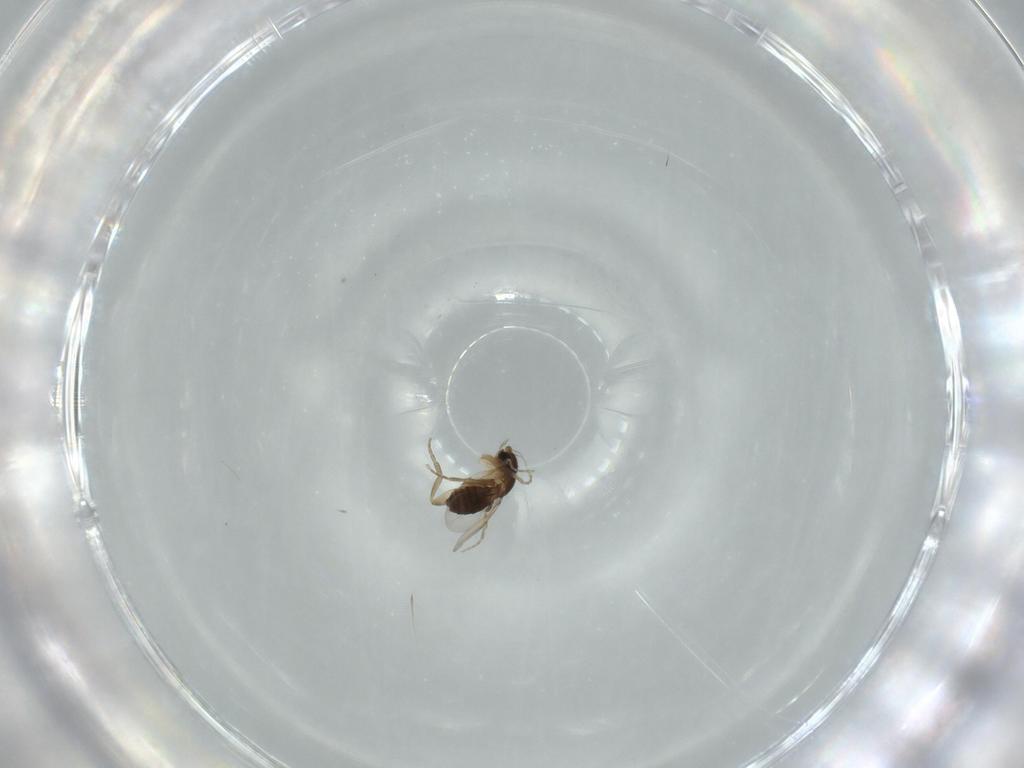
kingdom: Animalia
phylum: Arthropoda
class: Insecta
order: Diptera
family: Phoridae
